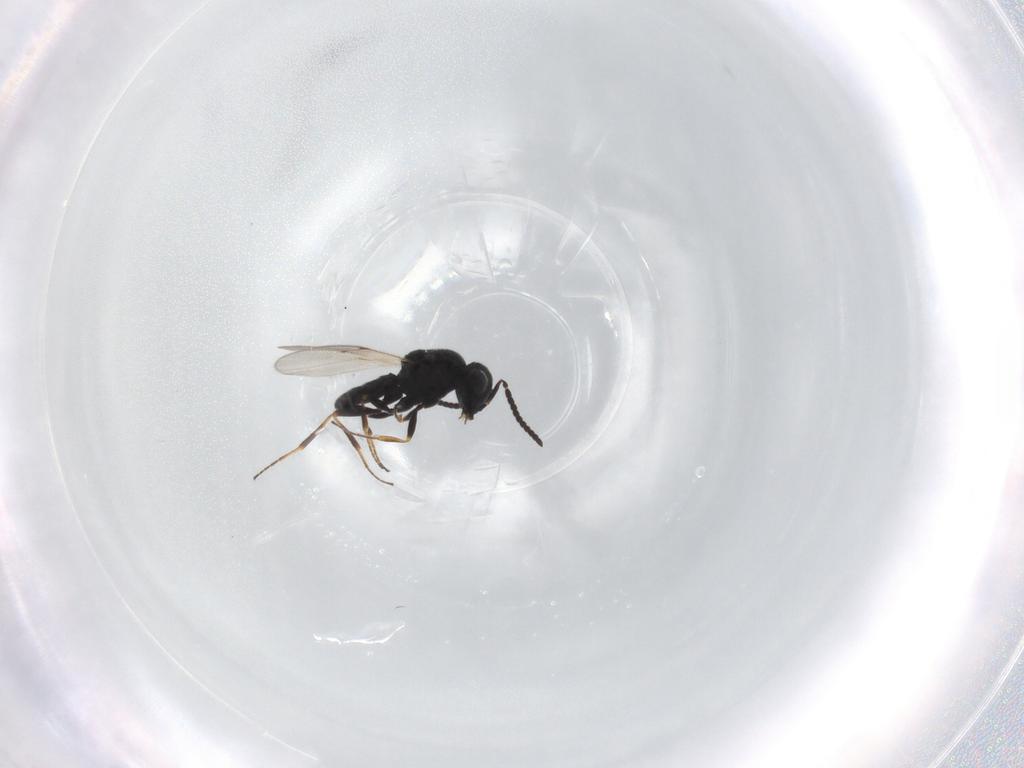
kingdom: Animalia
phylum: Arthropoda
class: Insecta
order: Hymenoptera
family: Scelionidae
